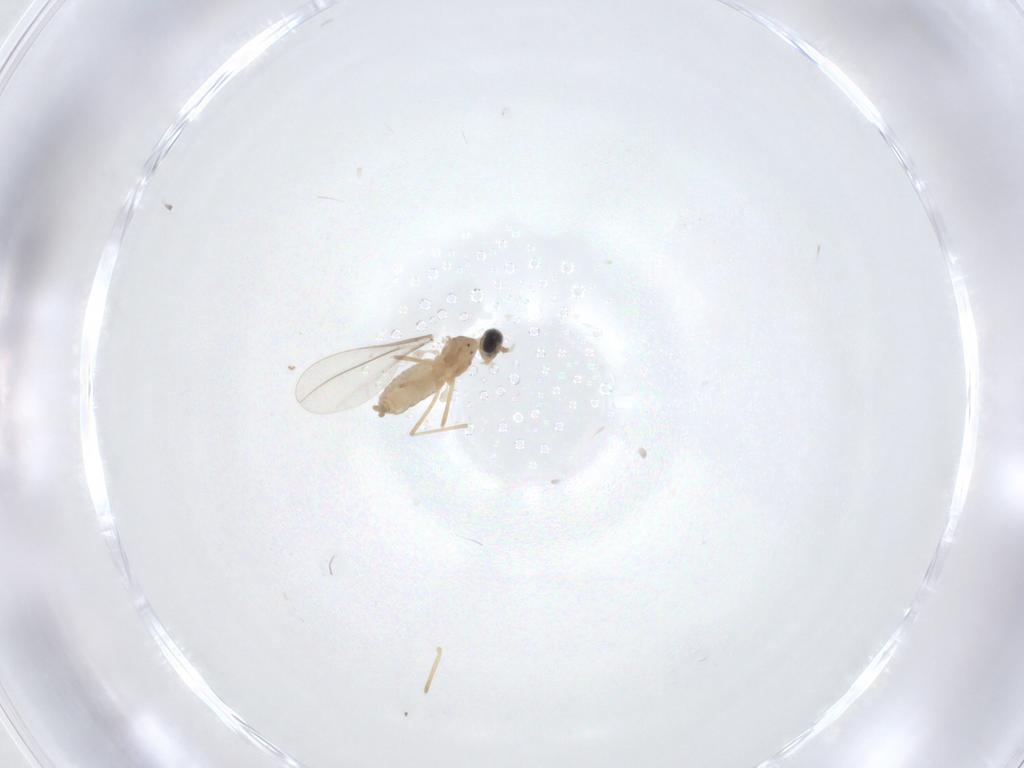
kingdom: Animalia
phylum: Arthropoda
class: Insecta
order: Diptera
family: Cecidomyiidae
